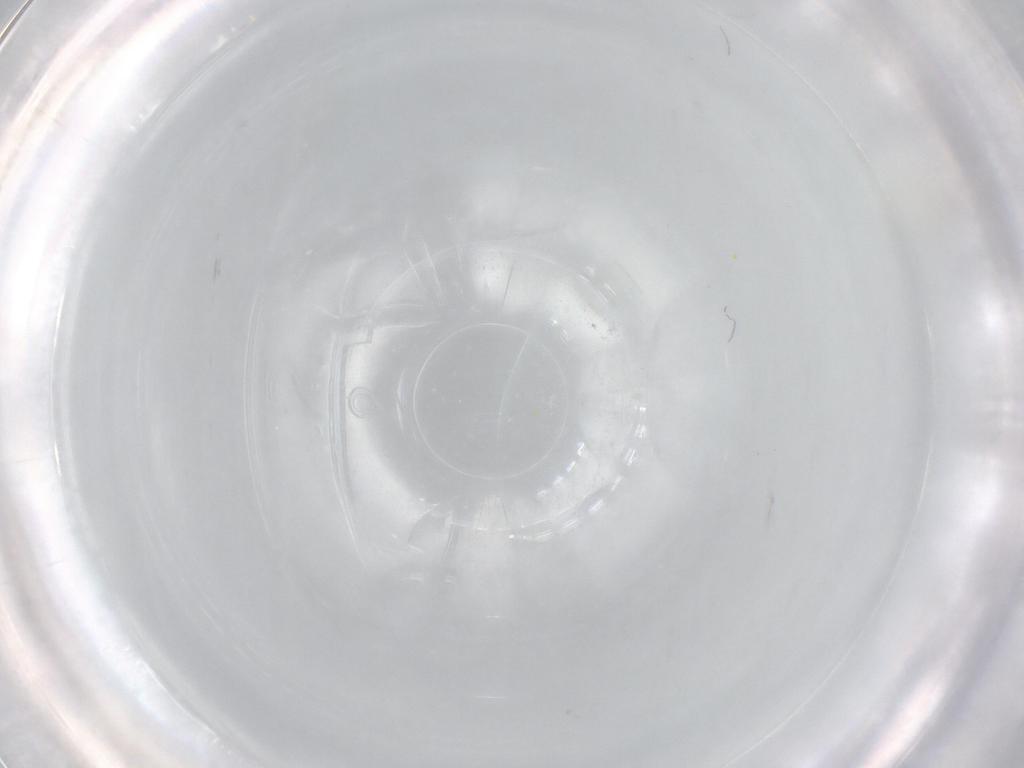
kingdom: Animalia
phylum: Arthropoda
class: Insecta
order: Hemiptera
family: Aleyrodidae
